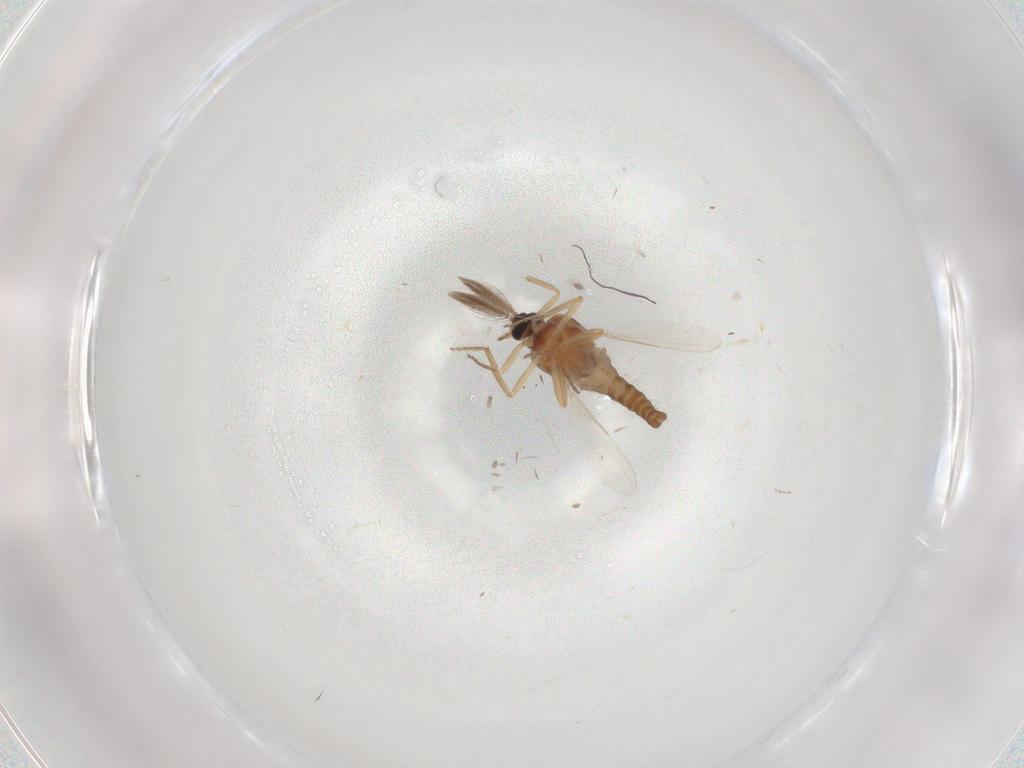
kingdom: Animalia
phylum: Arthropoda
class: Insecta
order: Diptera
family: Ceratopogonidae
